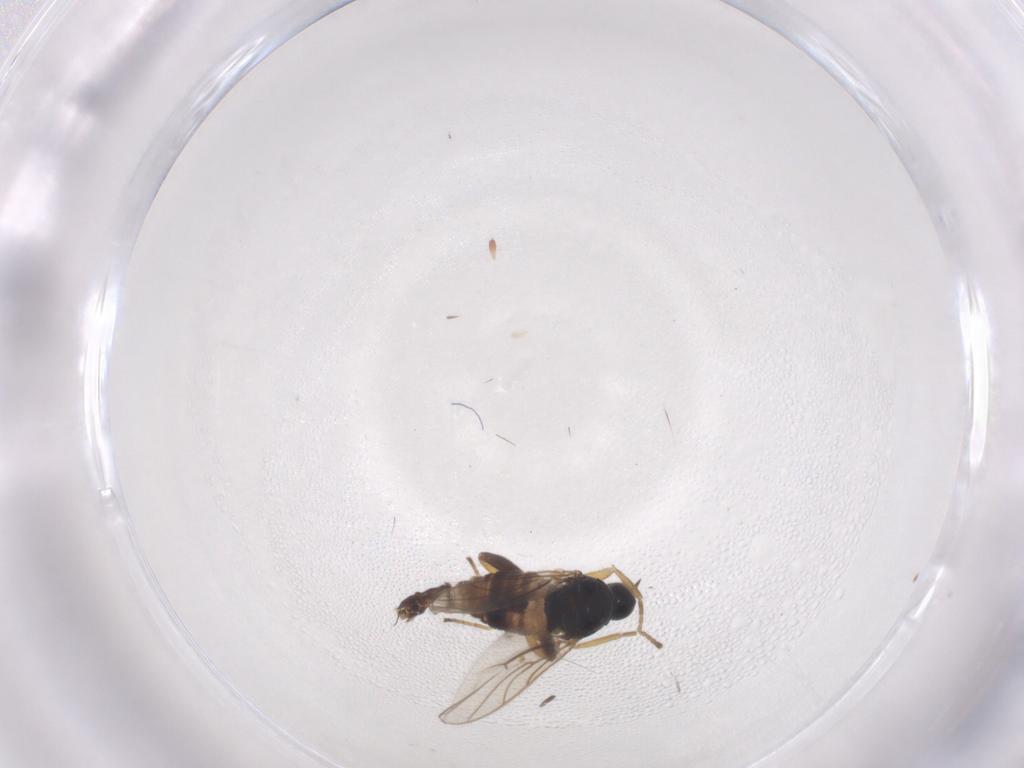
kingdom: Animalia
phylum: Arthropoda
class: Insecta
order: Diptera
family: Hybotidae
